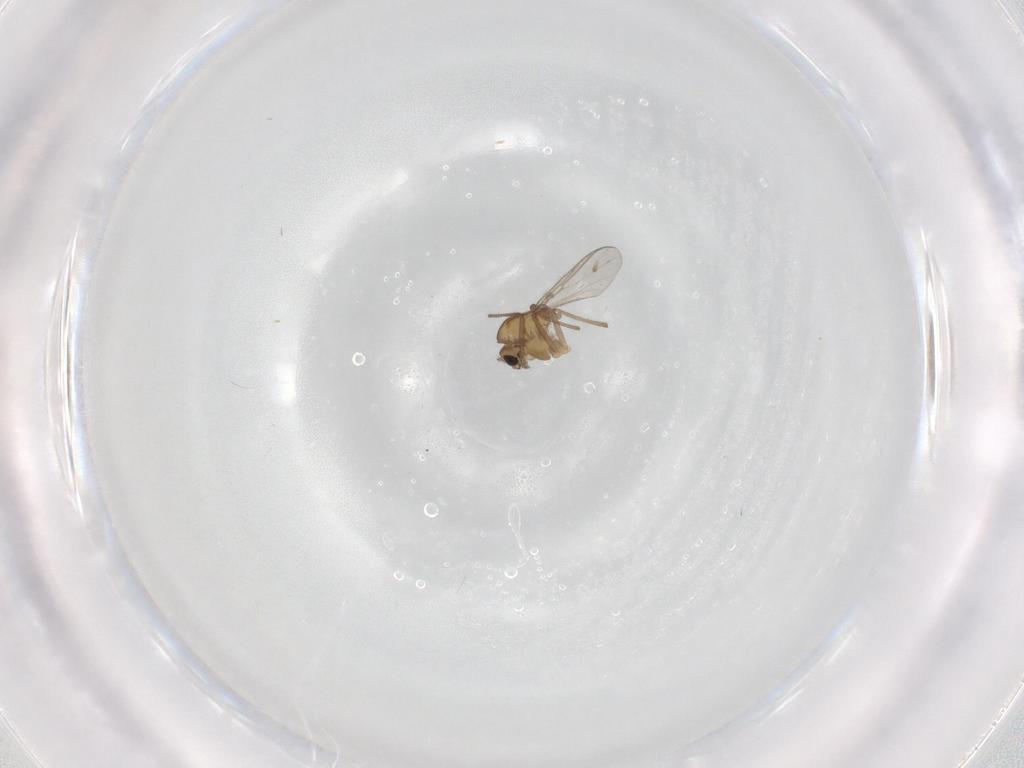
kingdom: Animalia
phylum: Arthropoda
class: Insecta
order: Diptera
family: Chironomidae
